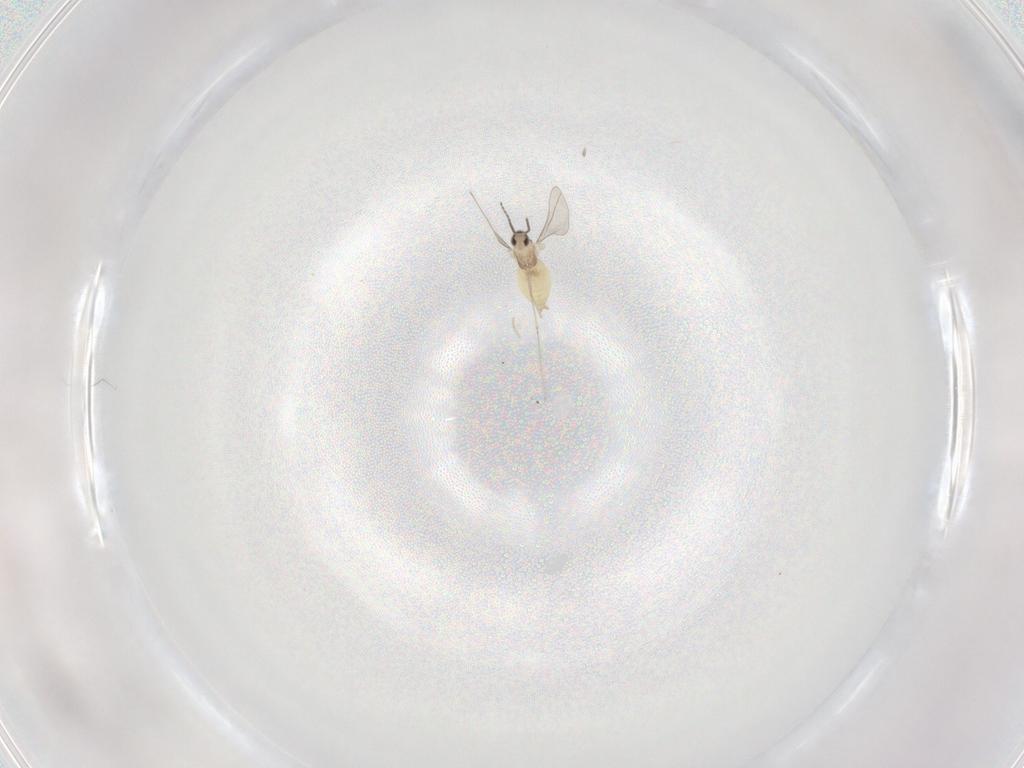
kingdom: Animalia
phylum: Arthropoda
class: Insecta
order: Diptera
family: Cecidomyiidae
